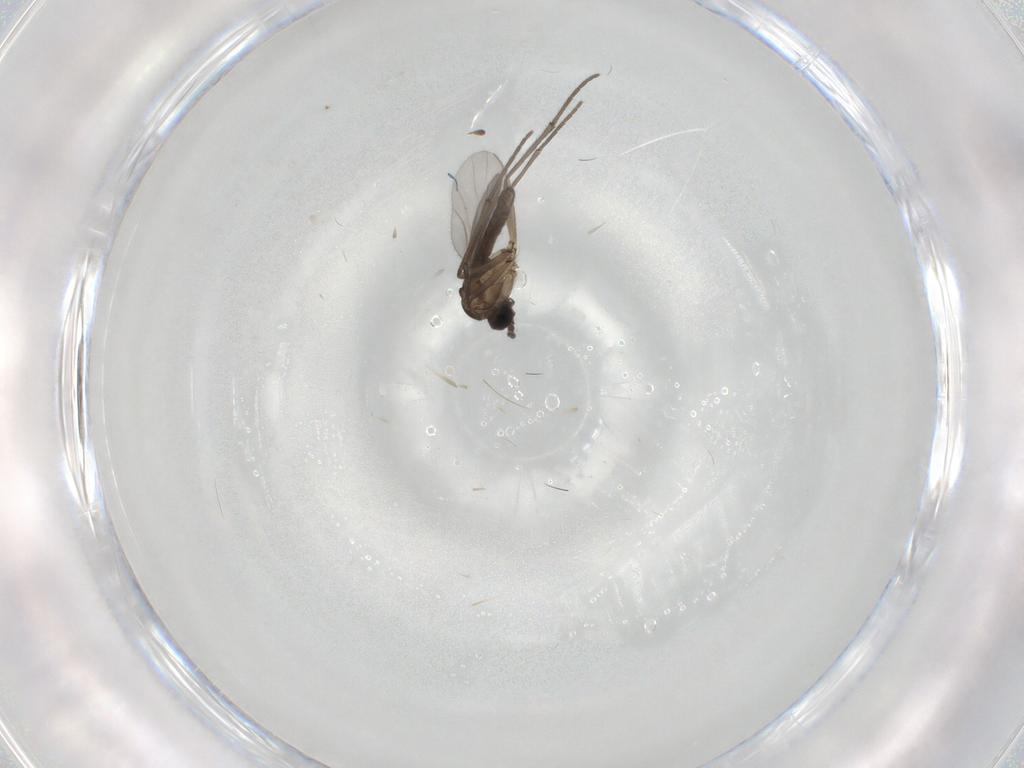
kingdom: Animalia
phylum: Arthropoda
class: Insecta
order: Diptera
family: Sciaridae
